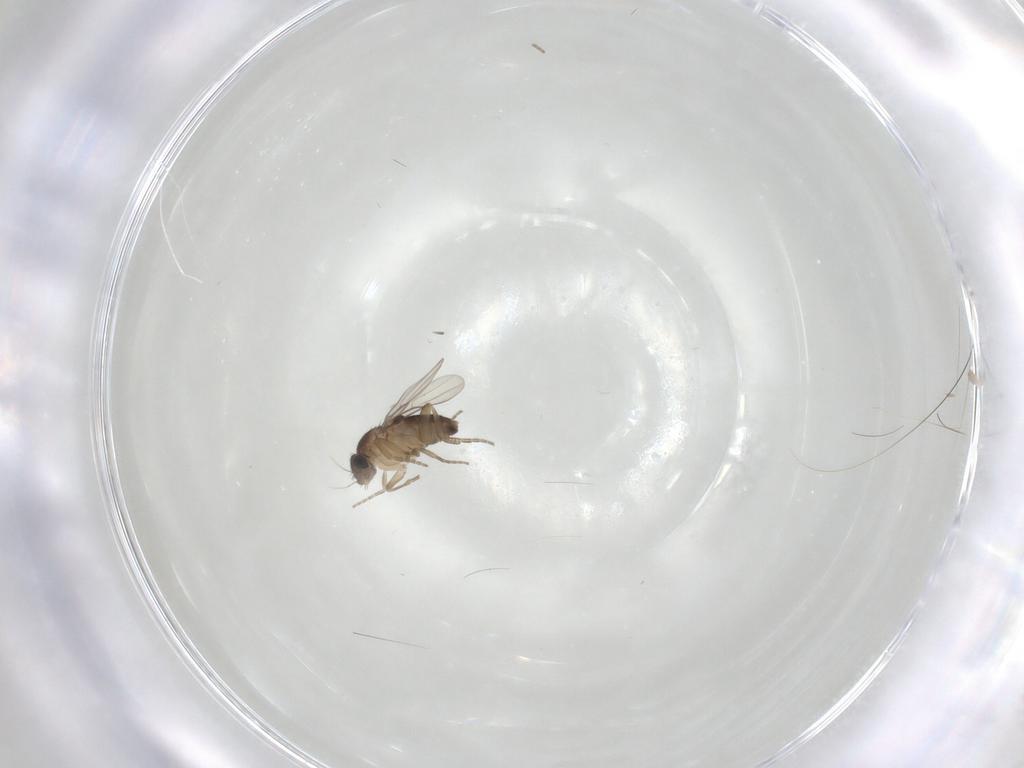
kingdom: Animalia
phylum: Arthropoda
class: Insecta
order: Diptera
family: Phoridae
